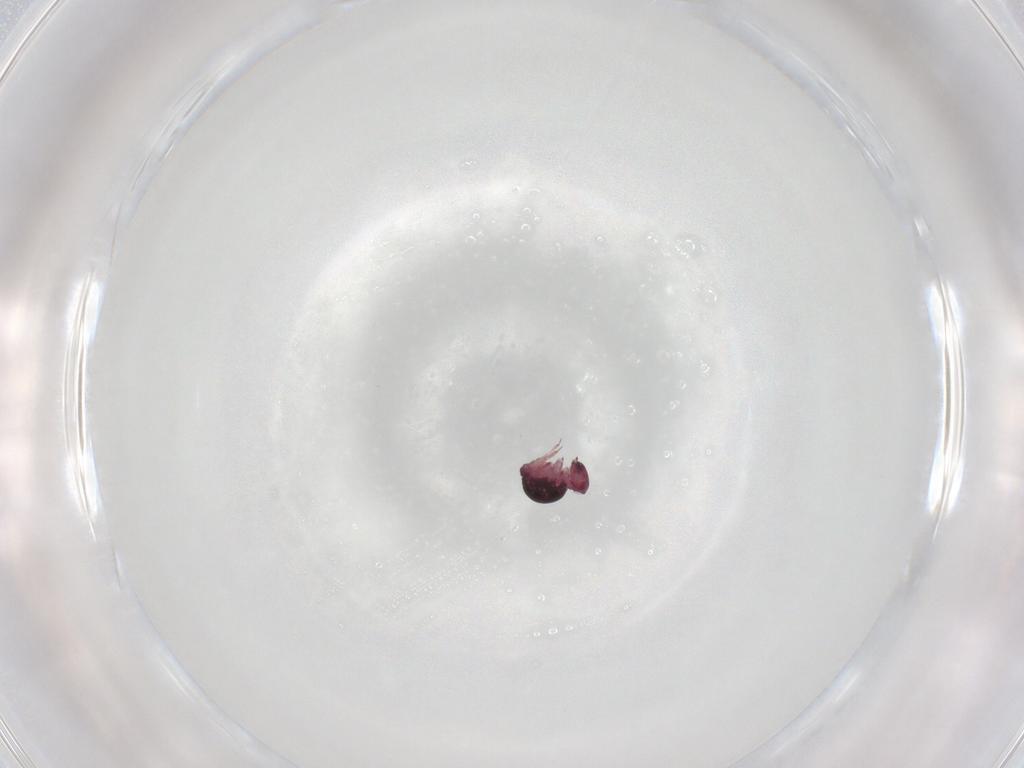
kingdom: Animalia
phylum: Arthropoda
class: Collembola
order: Symphypleona
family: Sminthurididae
